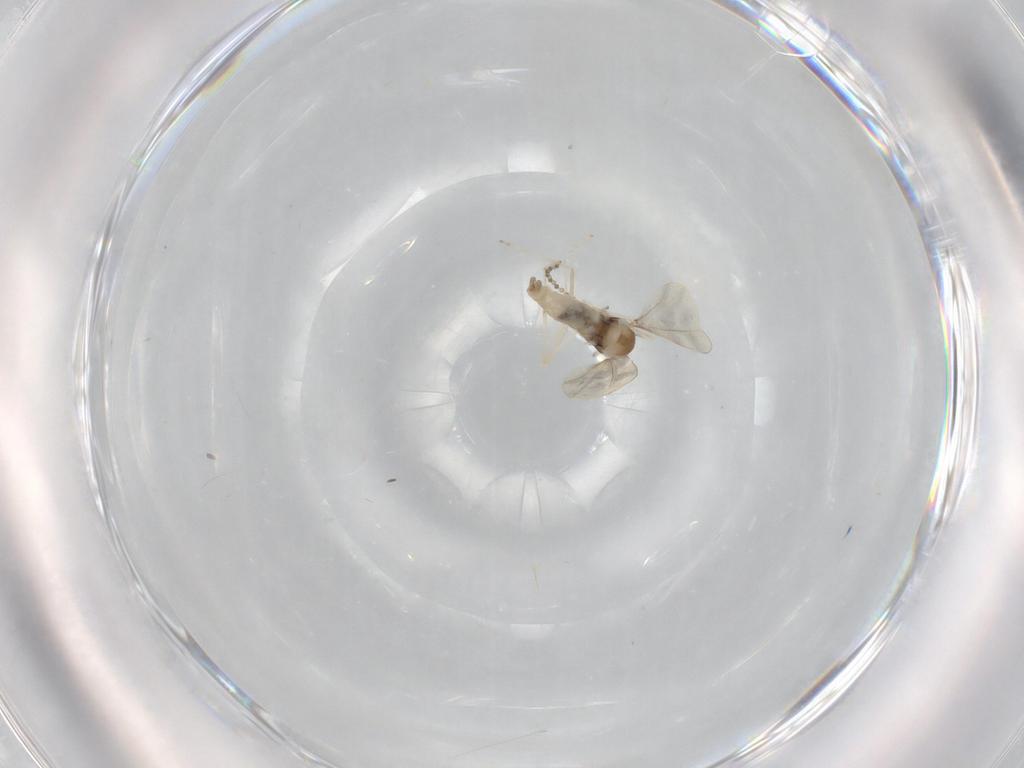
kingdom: Animalia
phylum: Arthropoda
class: Insecta
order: Diptera
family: Cecidomyiidae
